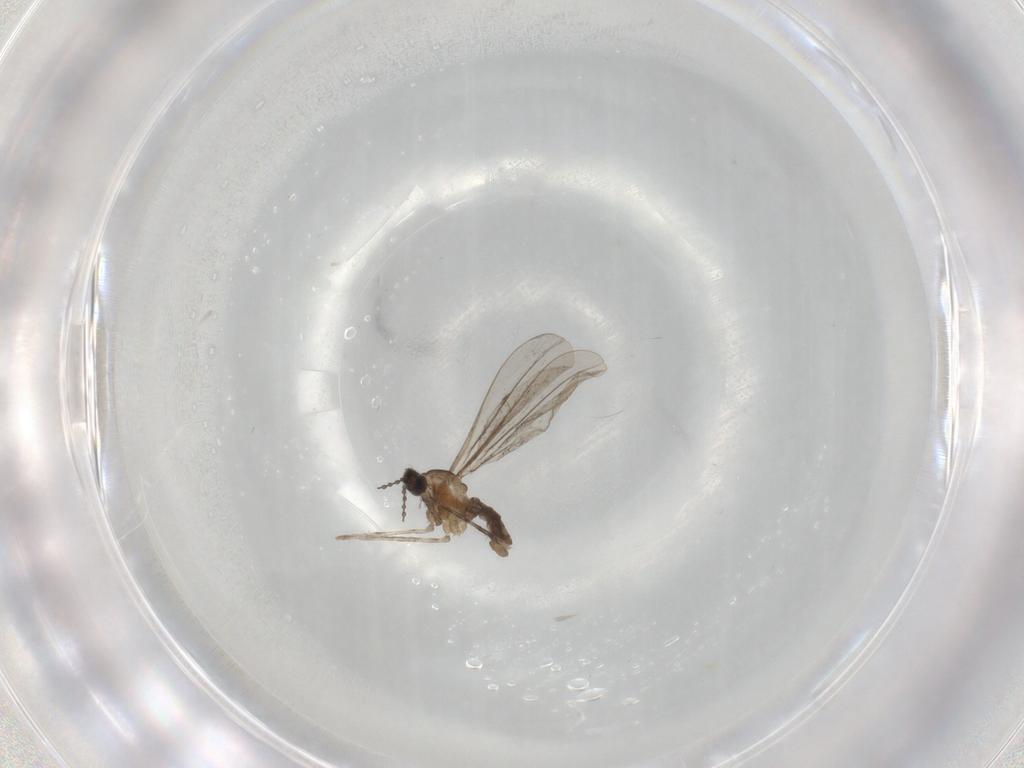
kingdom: Animalia
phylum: Arthropoda
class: Insecta
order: Diptera
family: Cecidomyiidae
